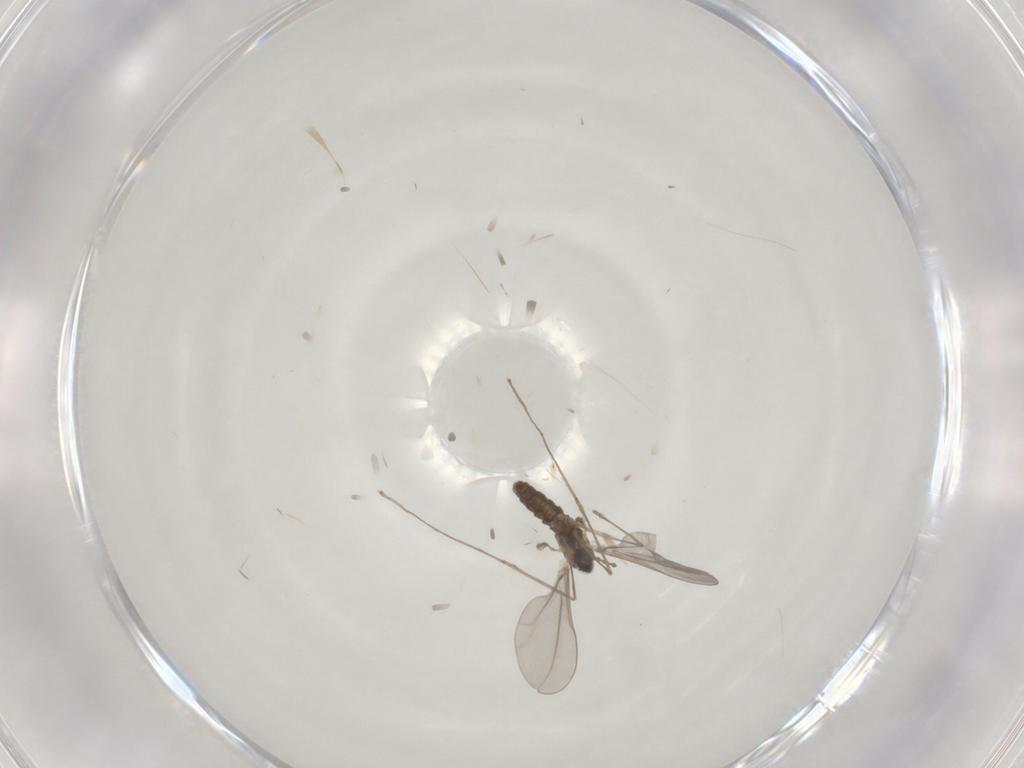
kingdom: Animalia
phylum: Arthropoda
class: Insecta
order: Diptera
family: Cecidomyiidae
